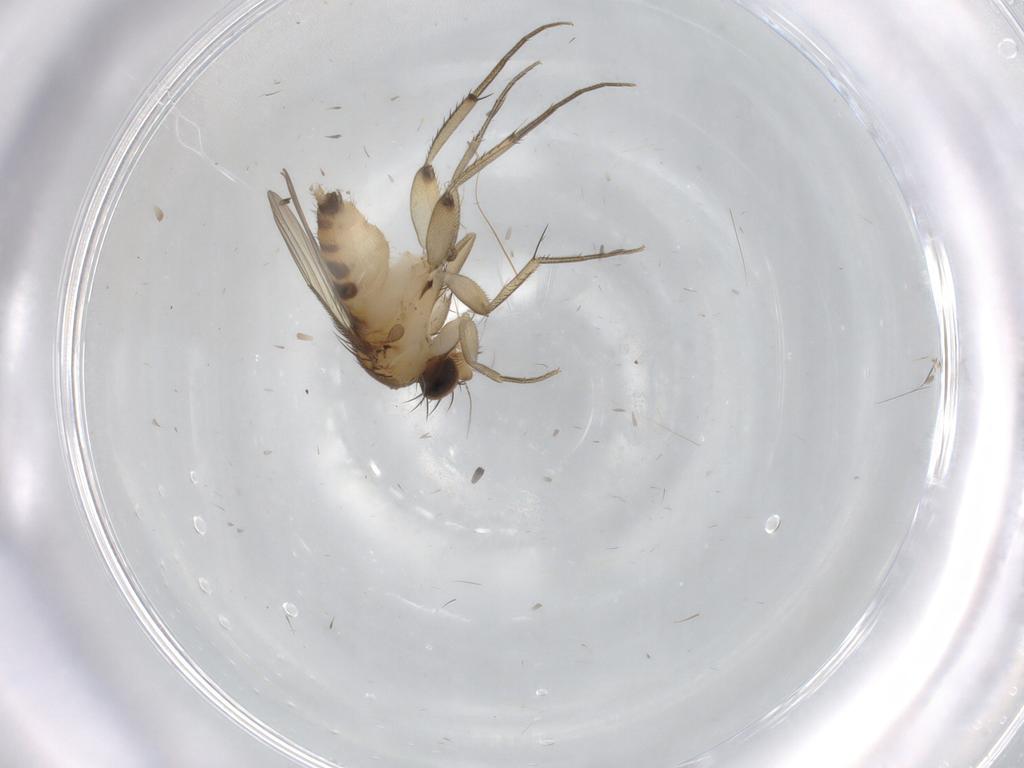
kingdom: Animalia
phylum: Arthropoda
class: Insecta
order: Diptera
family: Phoridae
